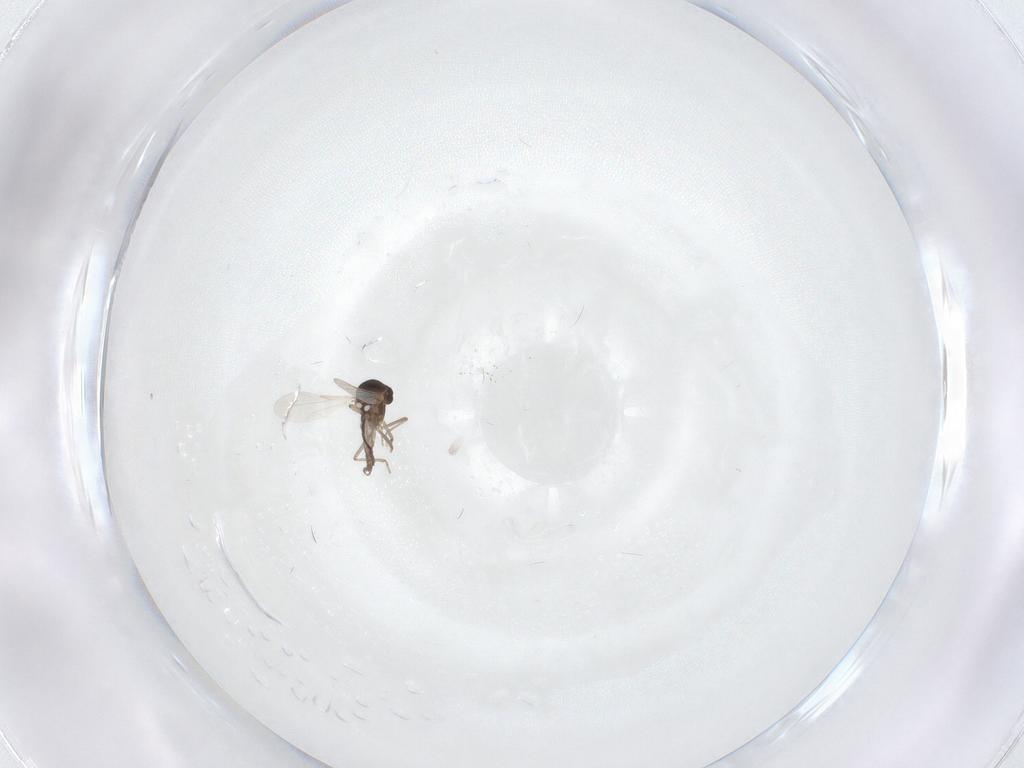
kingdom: Animalia
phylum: Arthropoda
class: Insecta
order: Diptera
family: Ceratopogonidae
